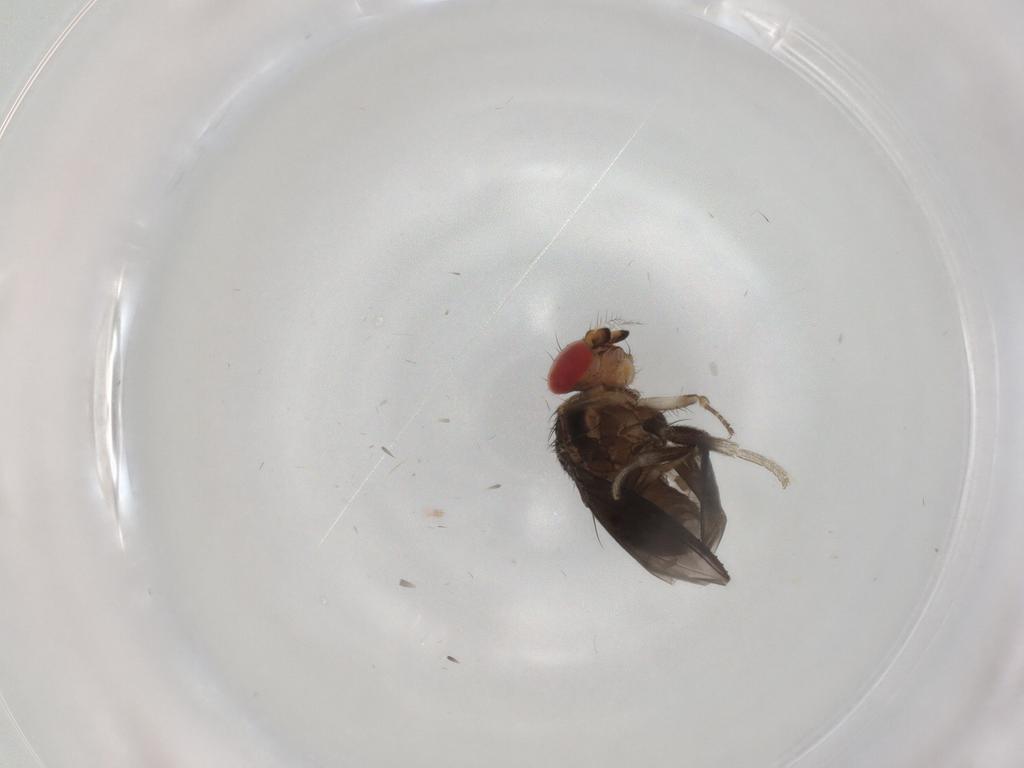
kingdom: Animalia
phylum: Arthropoda
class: Insecta
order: Diptera
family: Drosophilidae
